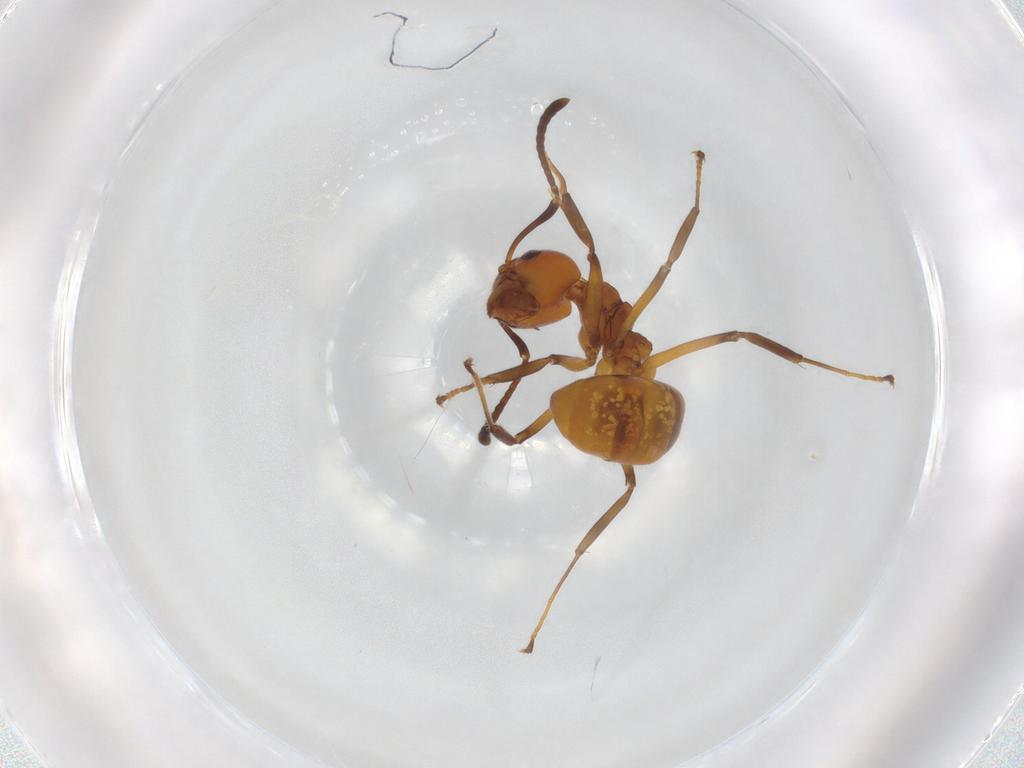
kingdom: Animalia
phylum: Arthropoda
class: Insecta
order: Hymenoptera
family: Formicidae
